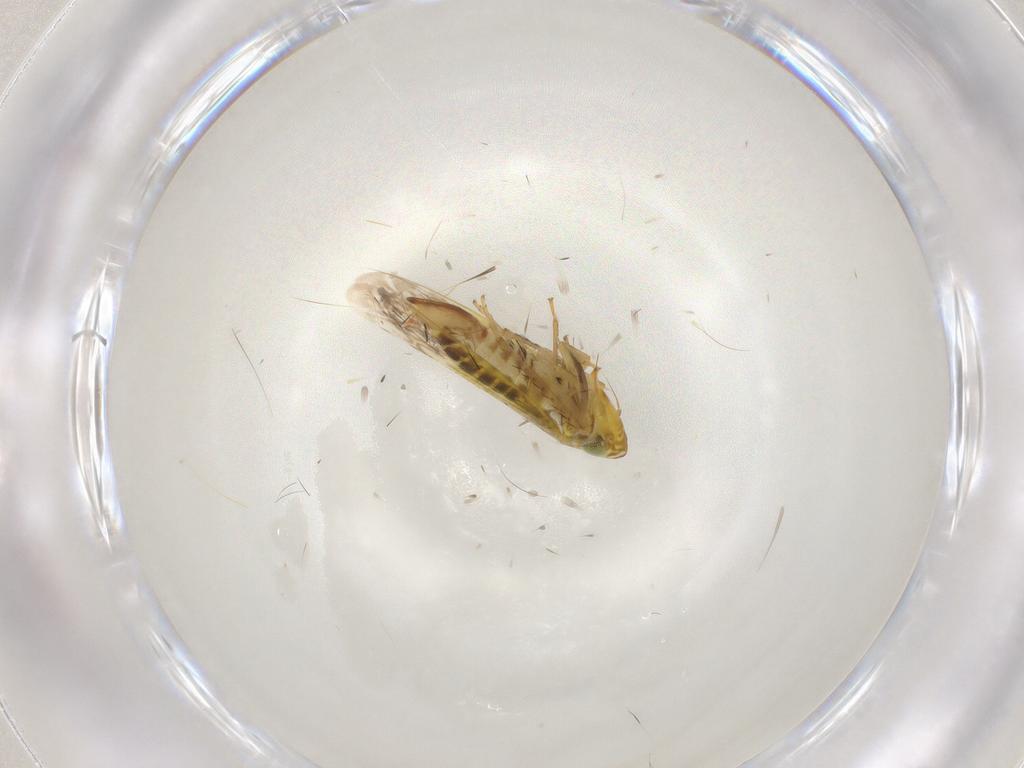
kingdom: Animalia
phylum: Arthropoda
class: Insecta
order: Hemiptera
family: Cicadellidae
